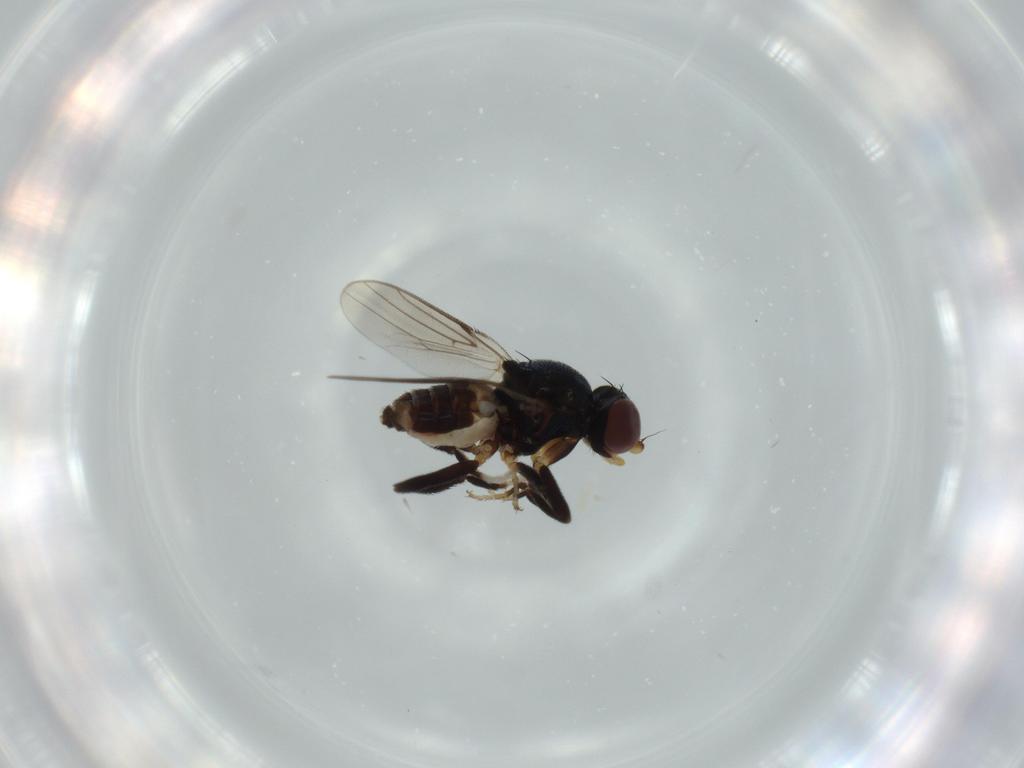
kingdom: Animalia
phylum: Arthropoda
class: Insecta
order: Diptera
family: Chloropidae
